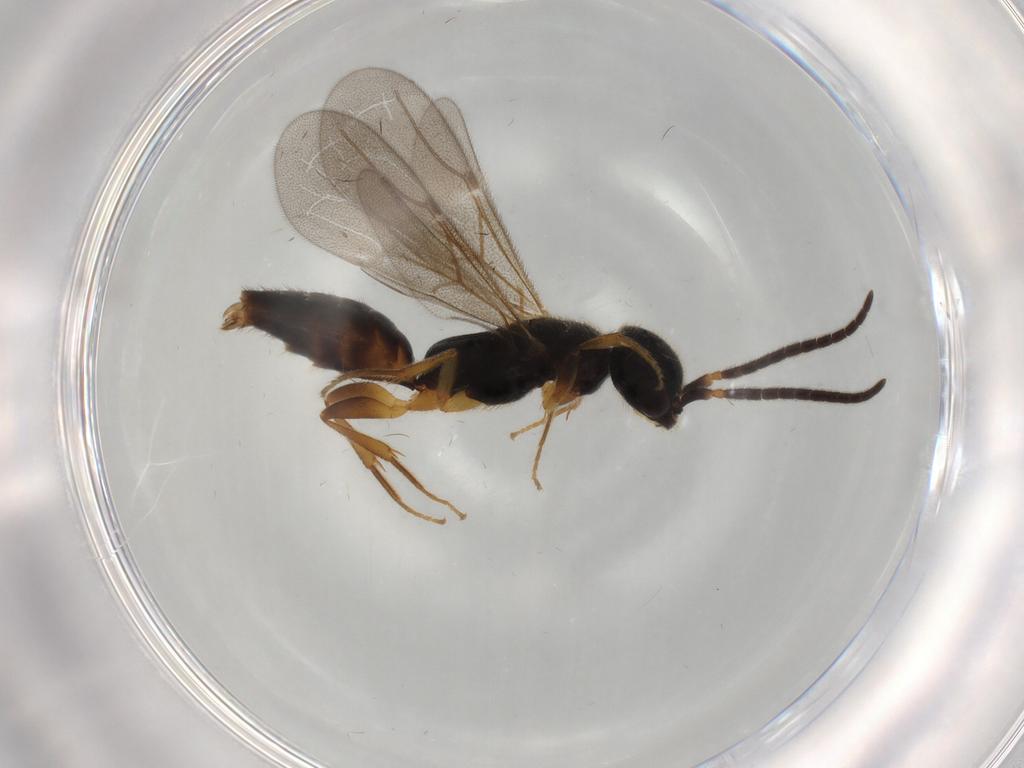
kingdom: Animalia
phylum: Arthropoda
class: Insecta
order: Hymenoptera
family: Bethylidae
